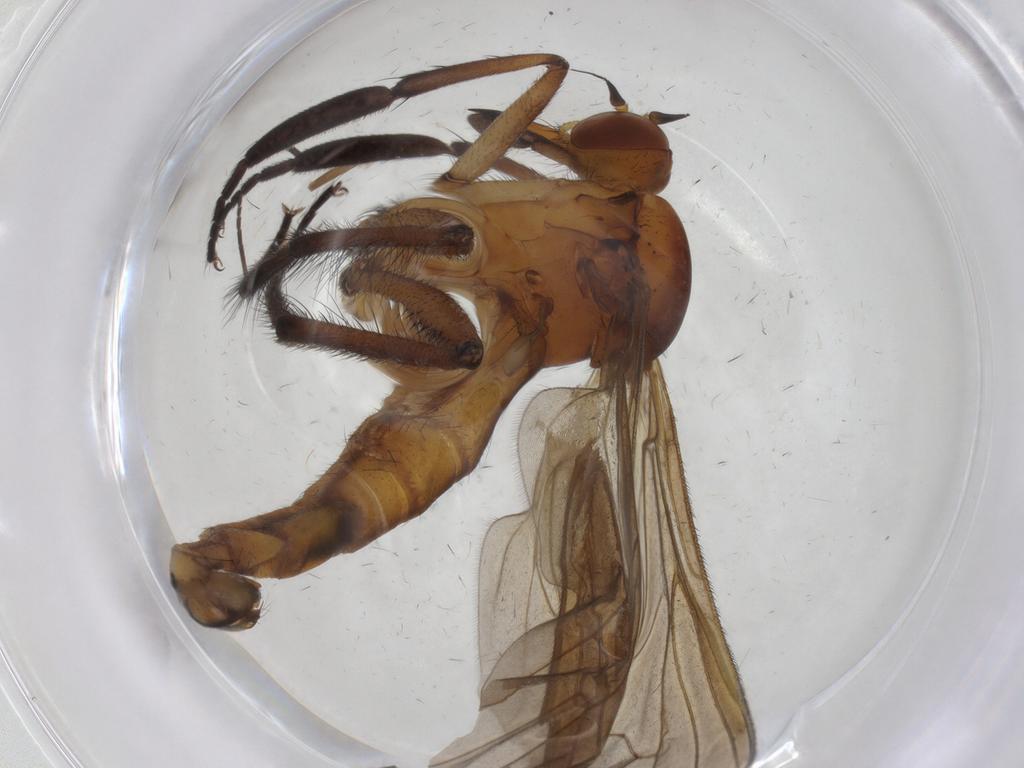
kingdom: Animalia
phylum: Arthropoda
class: Insecta
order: Diptera
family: Empididae
